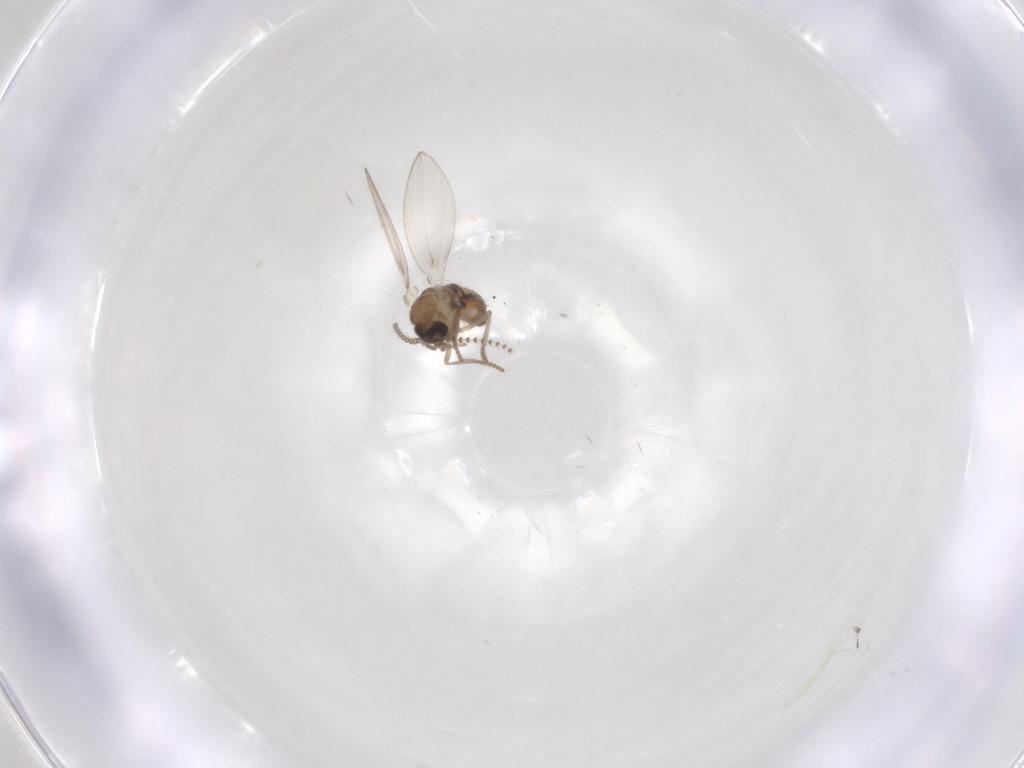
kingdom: Animalia
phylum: Arthropoda
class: Insecta
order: Diptera
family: Psychodidae
